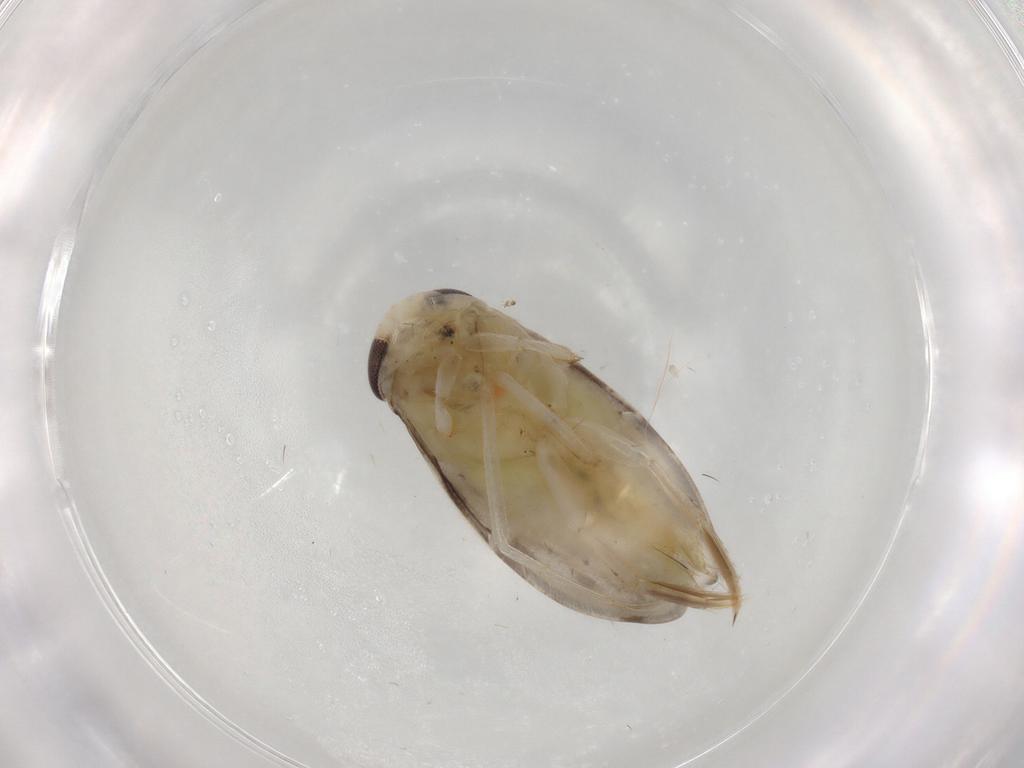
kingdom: Animalia
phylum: Arthropoda
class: Insecta
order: Hemiptera
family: Corixidae
